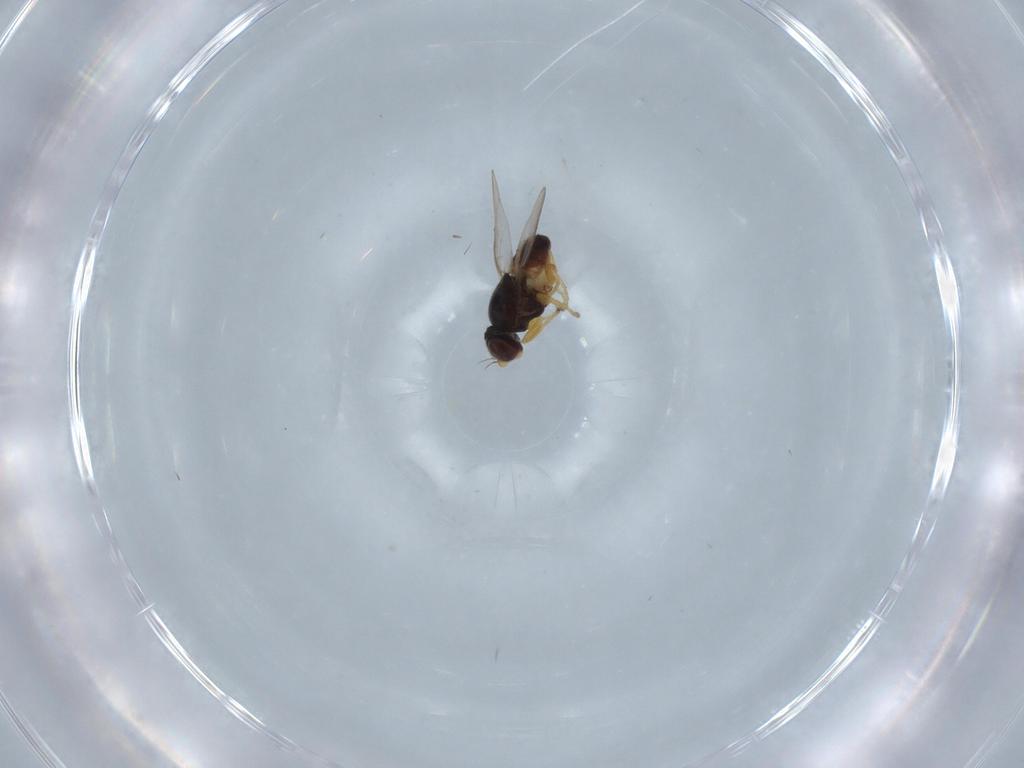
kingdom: Animalia
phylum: Arthropoda
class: Insecta
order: Diptera
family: Chloropidae
